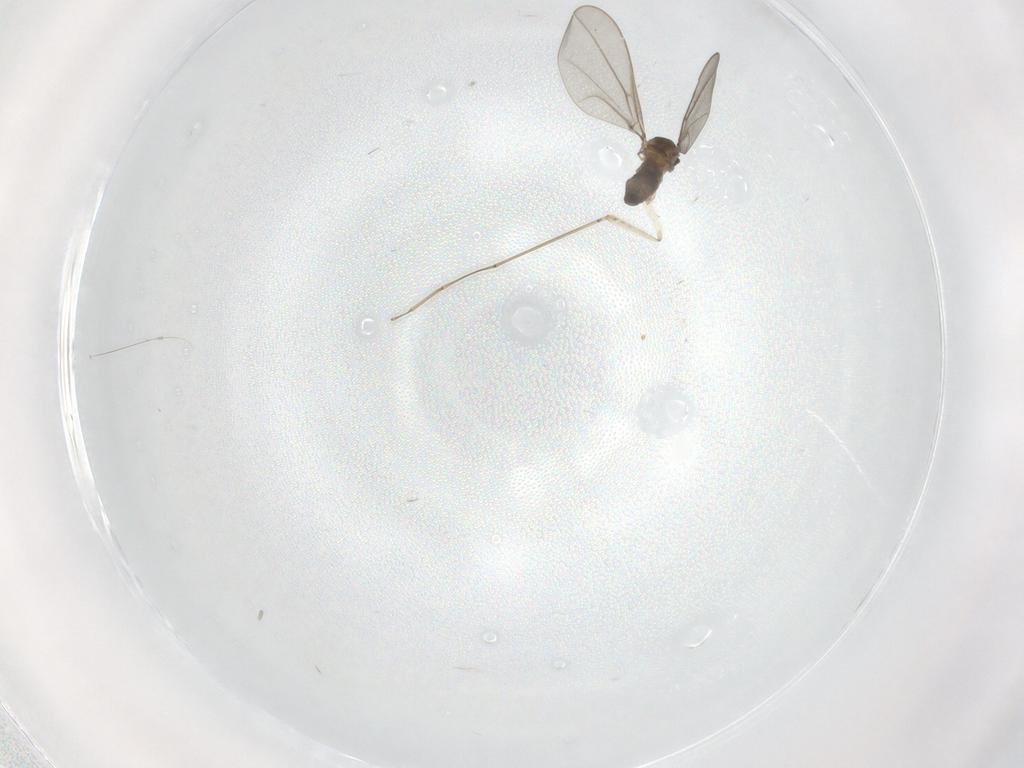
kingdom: Animalia
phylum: Arthropoda
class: Insecta
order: Diptera
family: Cecidomyiidae
